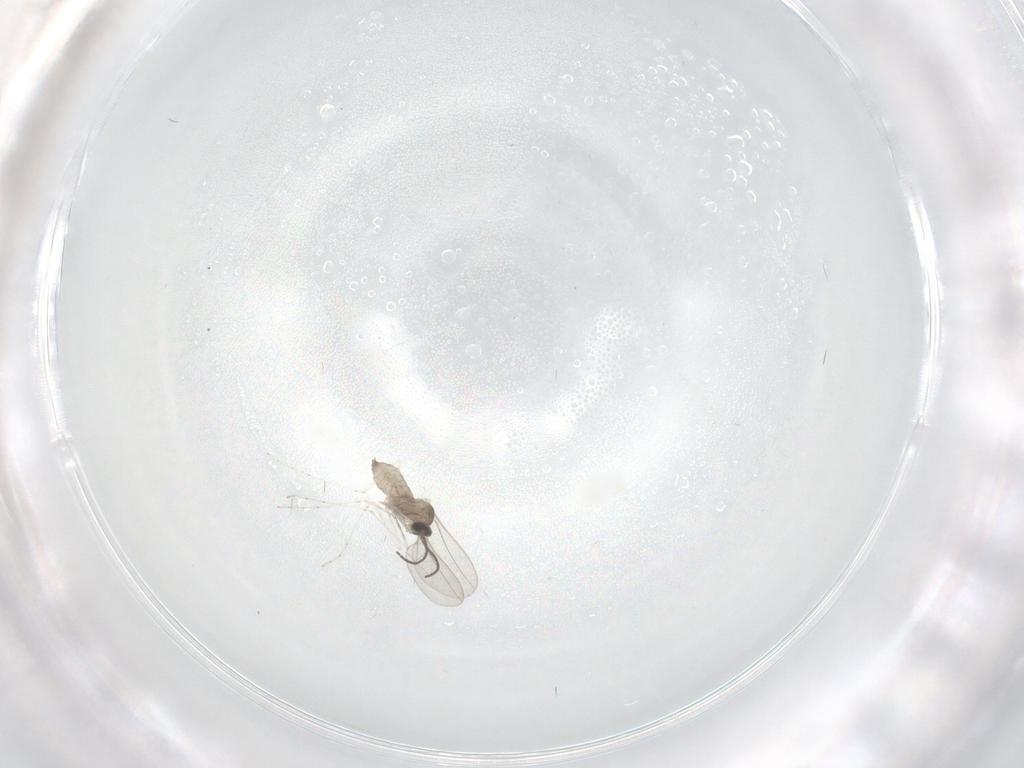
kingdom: Animalia
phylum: Arthropoda
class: Insecta
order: Diptera
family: Cecidomyiidae
